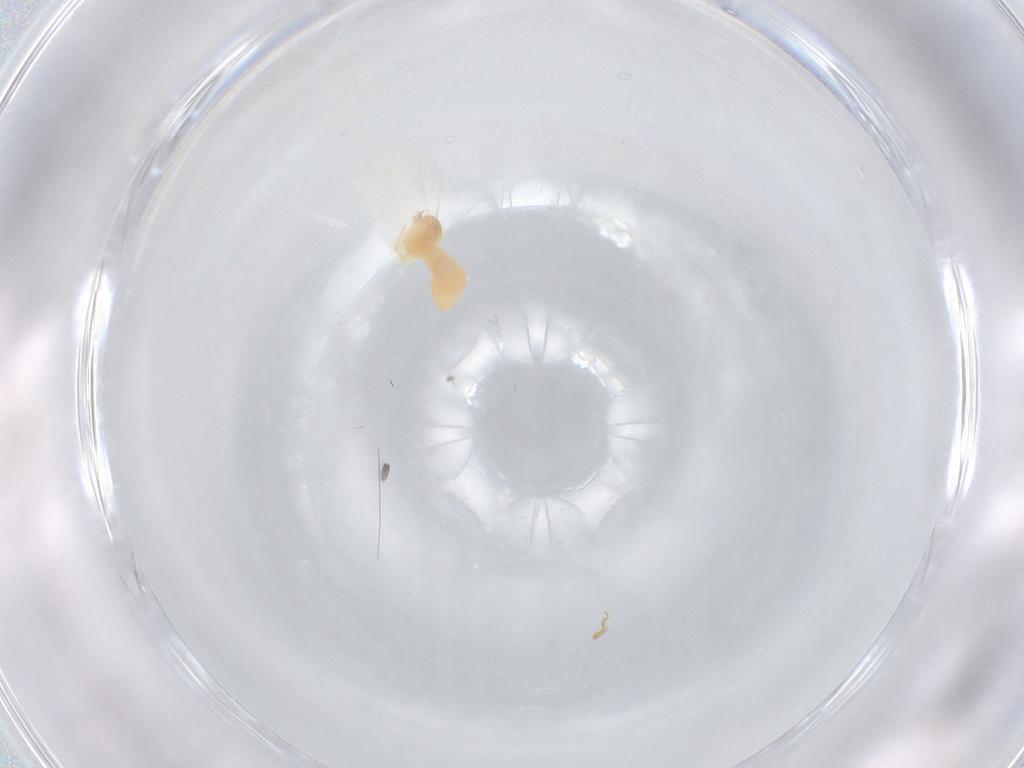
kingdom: Animalia
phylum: Arthropoda
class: Insecta
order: Diptera
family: Cecidomyiidae
